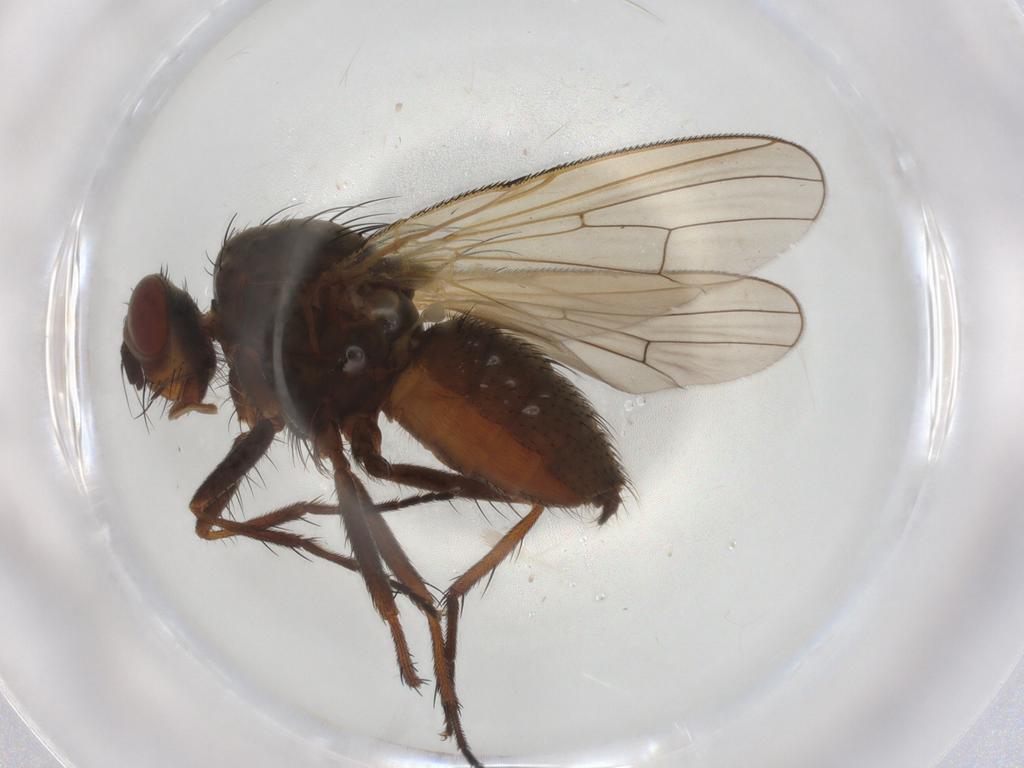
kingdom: Animalia
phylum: Arthropoda
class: Insecta
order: Diptera
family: Anthomyiidae
